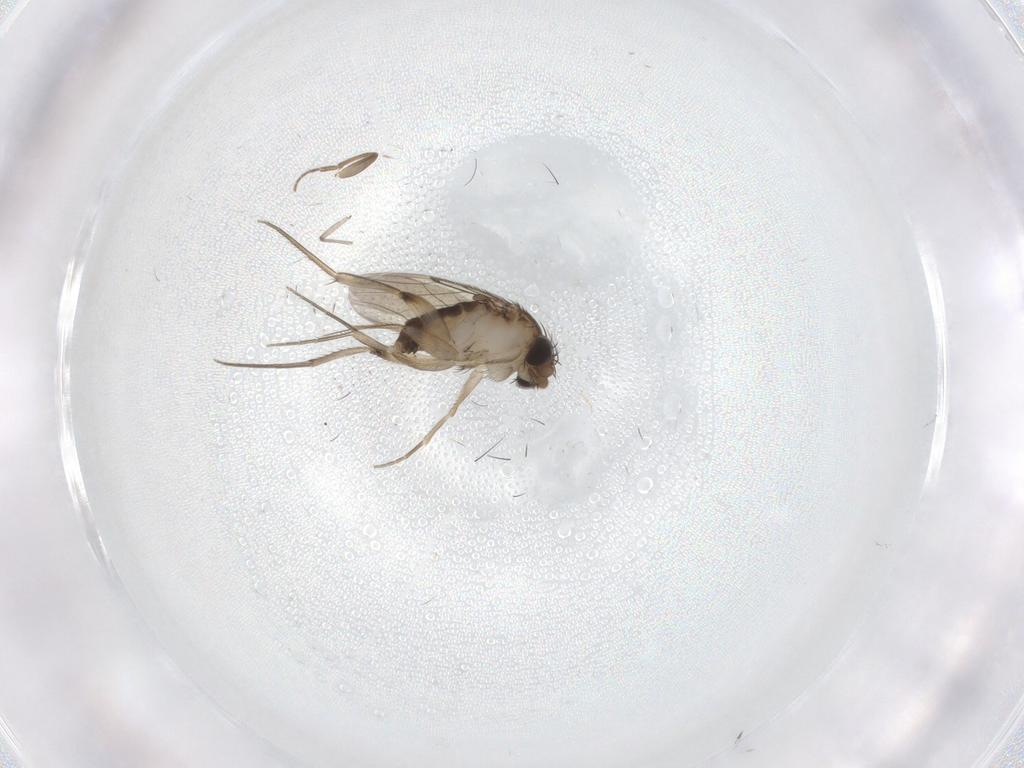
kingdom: Animalia
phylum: Arthropoda
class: Insecta
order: Diptera
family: Phoridae
